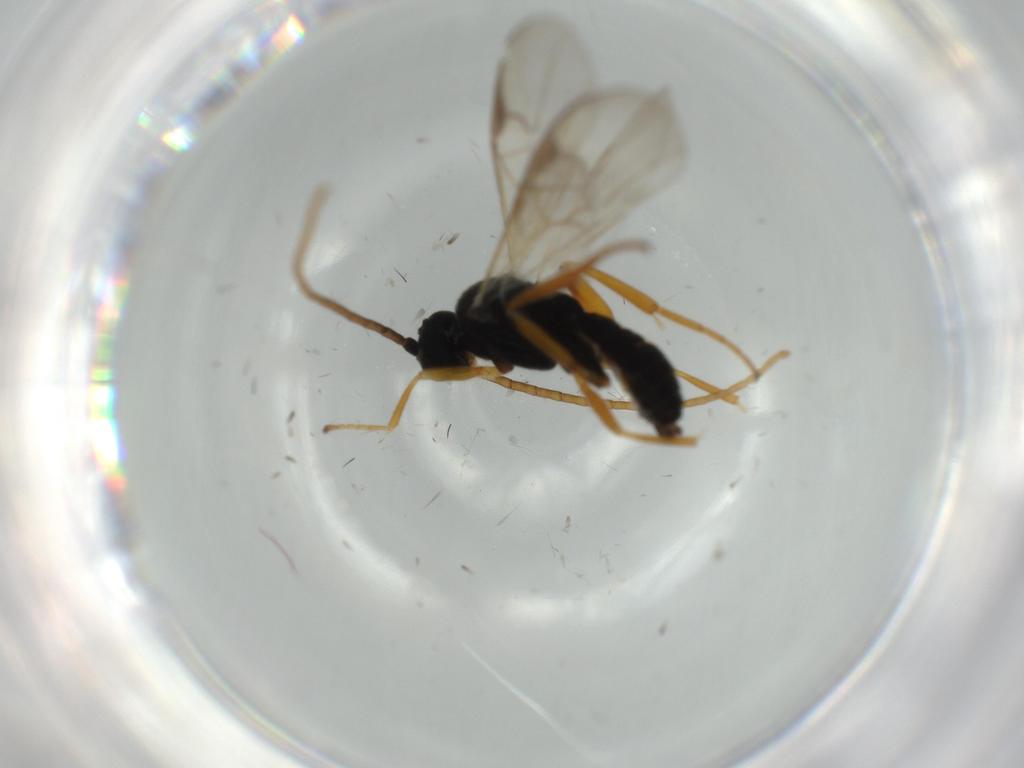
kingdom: Animalia
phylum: Arthropoda
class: Insecta
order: Hymenoptera
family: Braconidae
